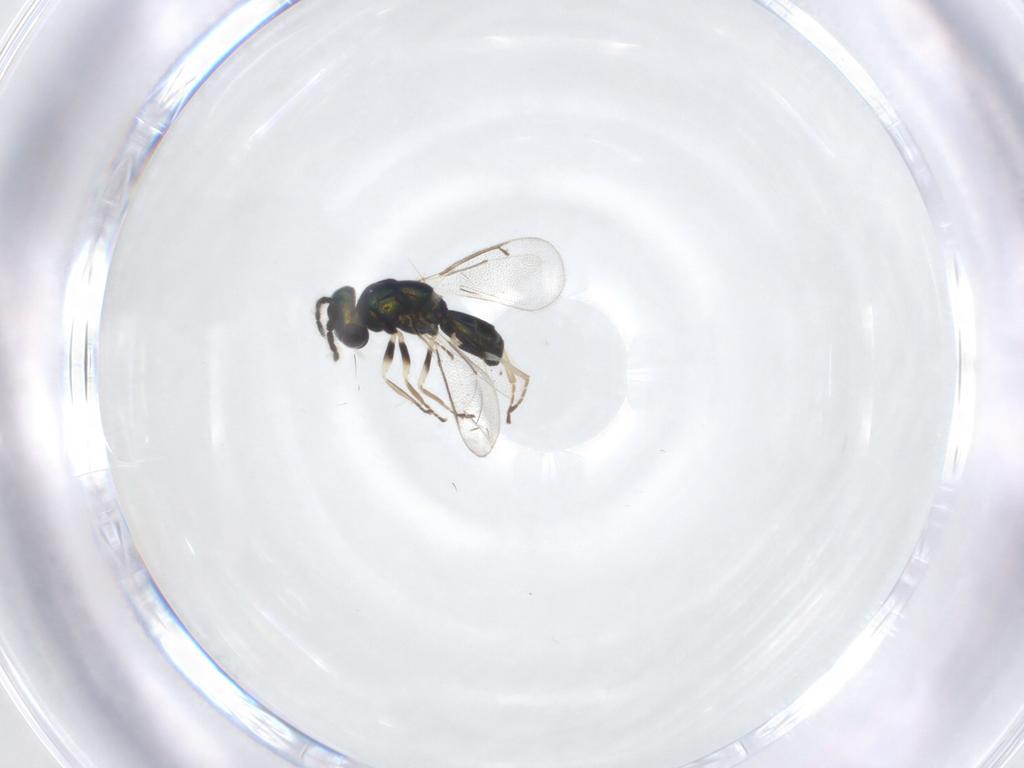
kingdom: Animalia
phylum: Arthropoda
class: Insecta
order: Hymenoptera
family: Eulophidae
